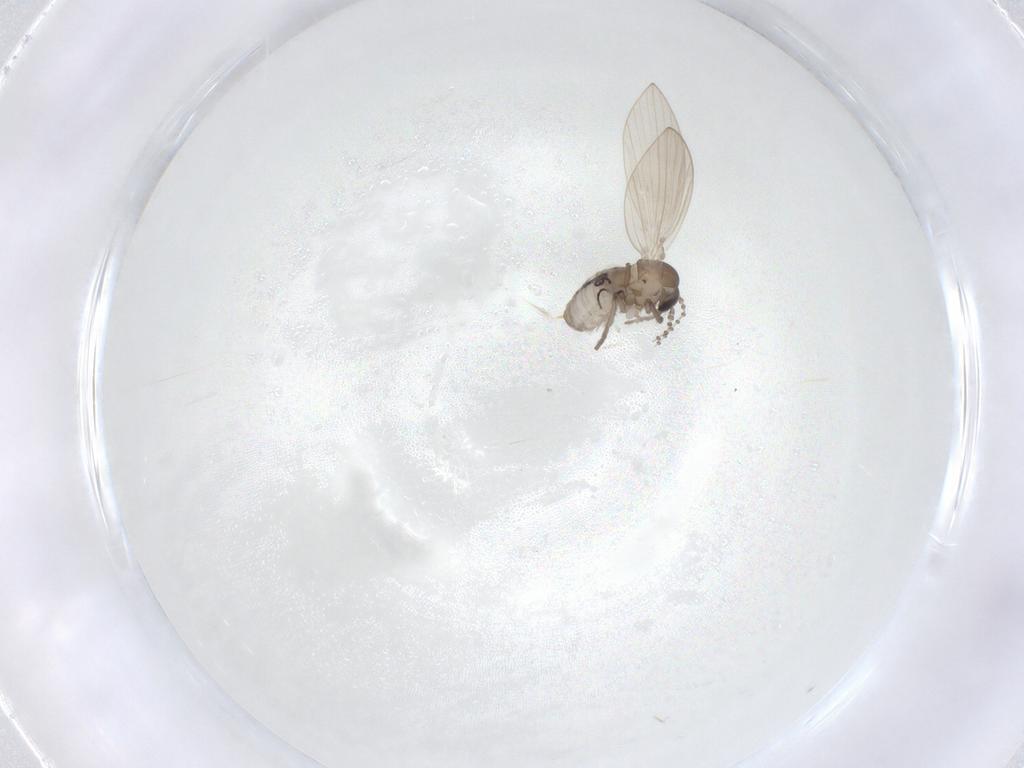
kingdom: Animalia
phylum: Arthropoda
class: Insecta
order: Diptera
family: Psychodidae
